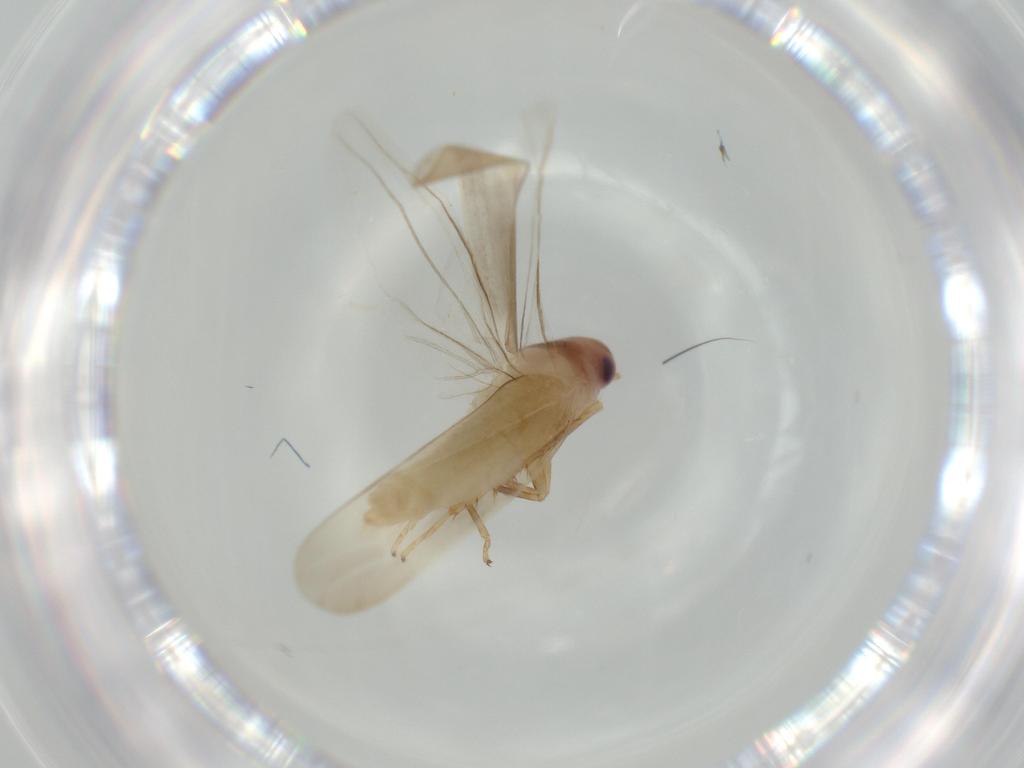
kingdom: Animalia
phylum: Arthropoda
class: Insecta
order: Hemiptera
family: Cicadellidae
